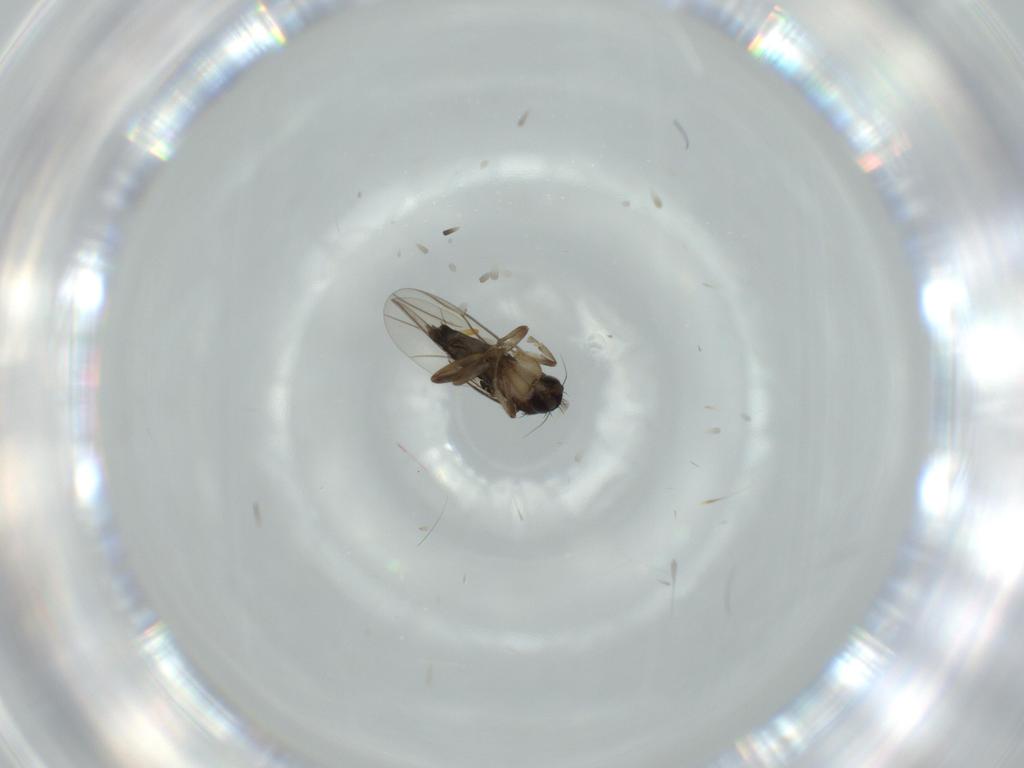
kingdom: Animalia
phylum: Arthropoda
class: Insecta
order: Diptera
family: Phoridae
